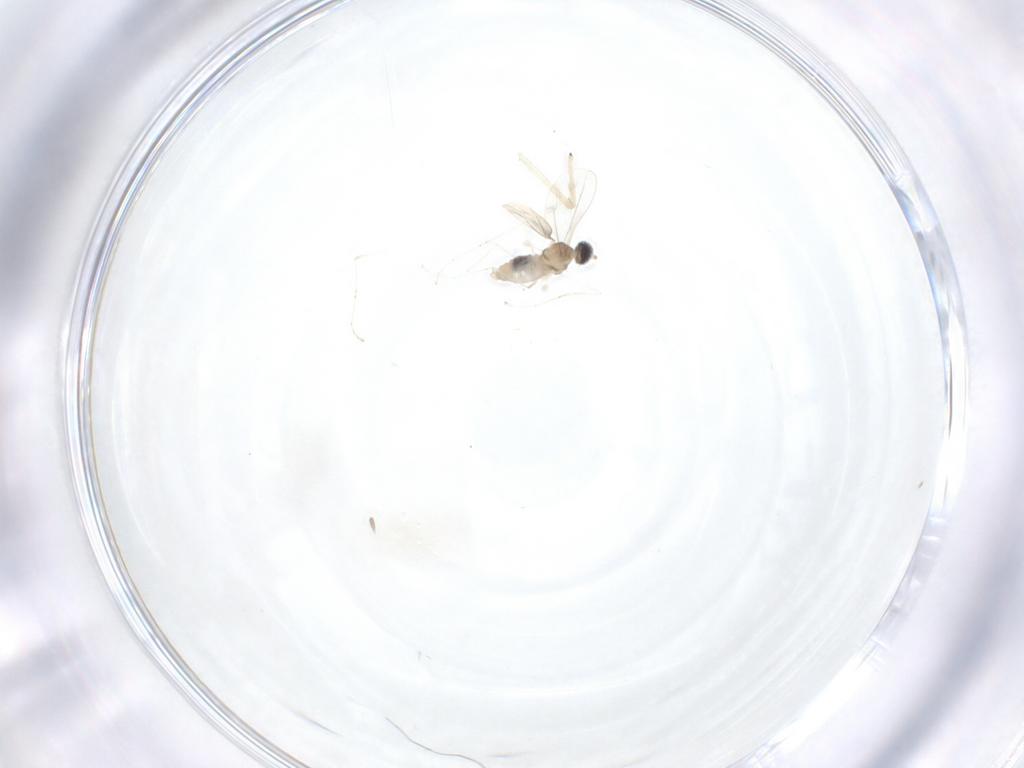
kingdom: Animalia
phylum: Arthropoda
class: Insecta
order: Diptera
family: Cecidomyiidae
